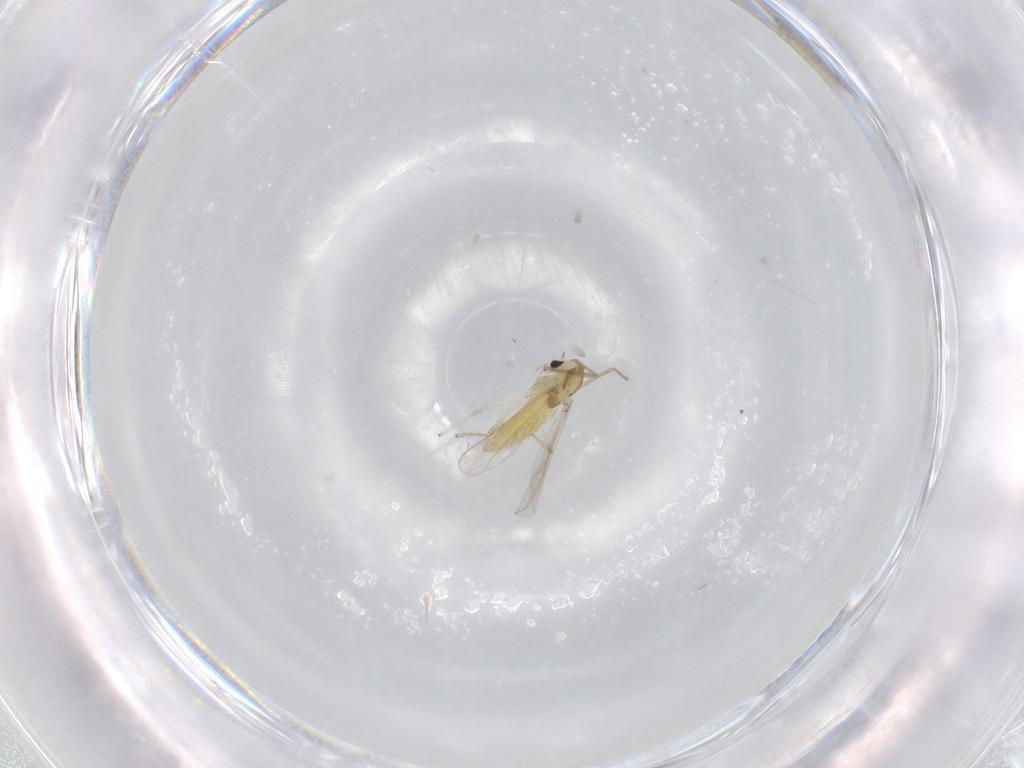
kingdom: Animalia
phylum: Arthropoda
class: Insecta
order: Diptera
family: Chironomidae
